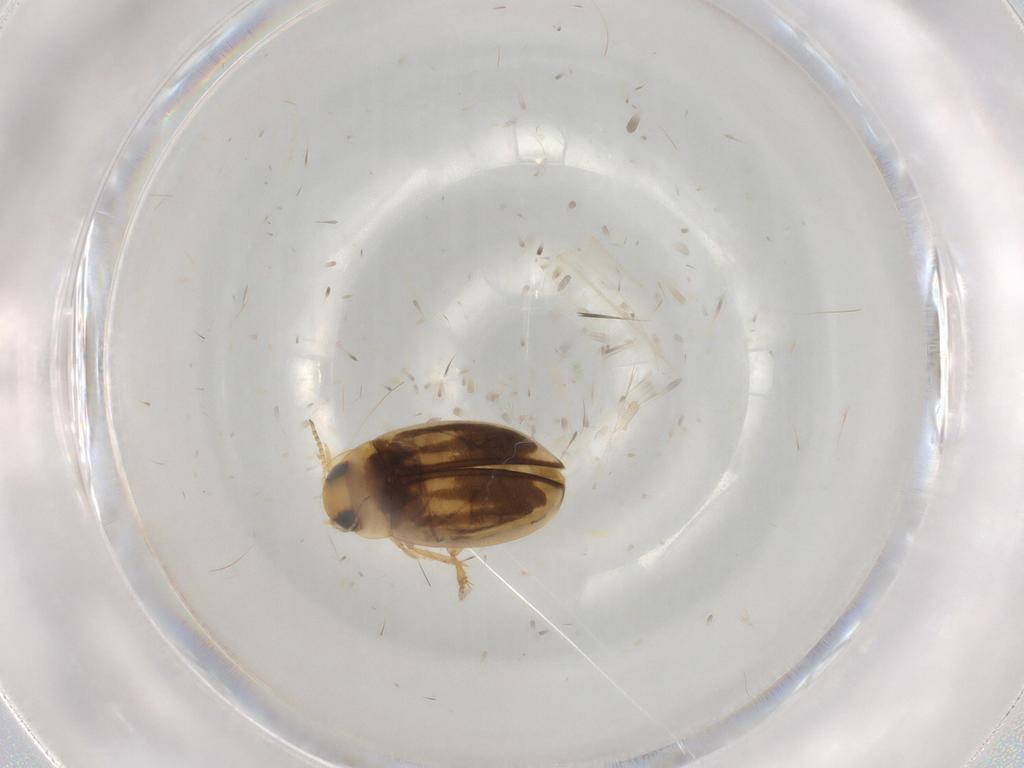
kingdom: Animalia
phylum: Arthropoda
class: Insecta
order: Coleoptera
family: Dytiscidae
